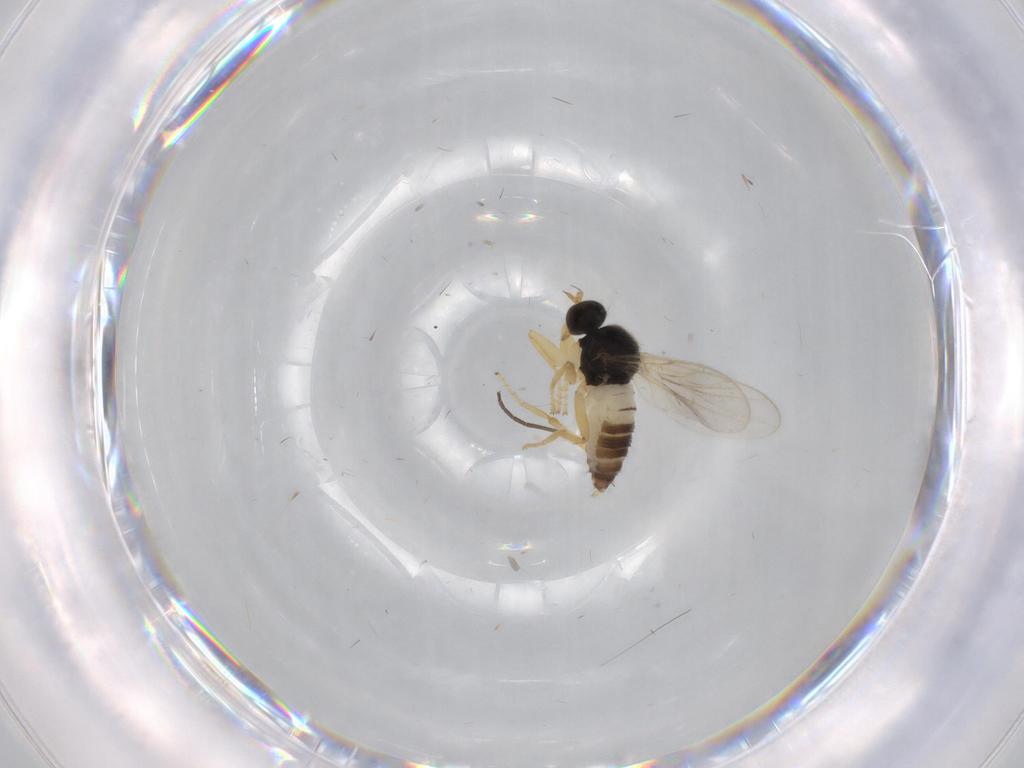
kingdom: Animalia
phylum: Arthropoda
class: Insecta
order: Diptera
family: Hybotidae
